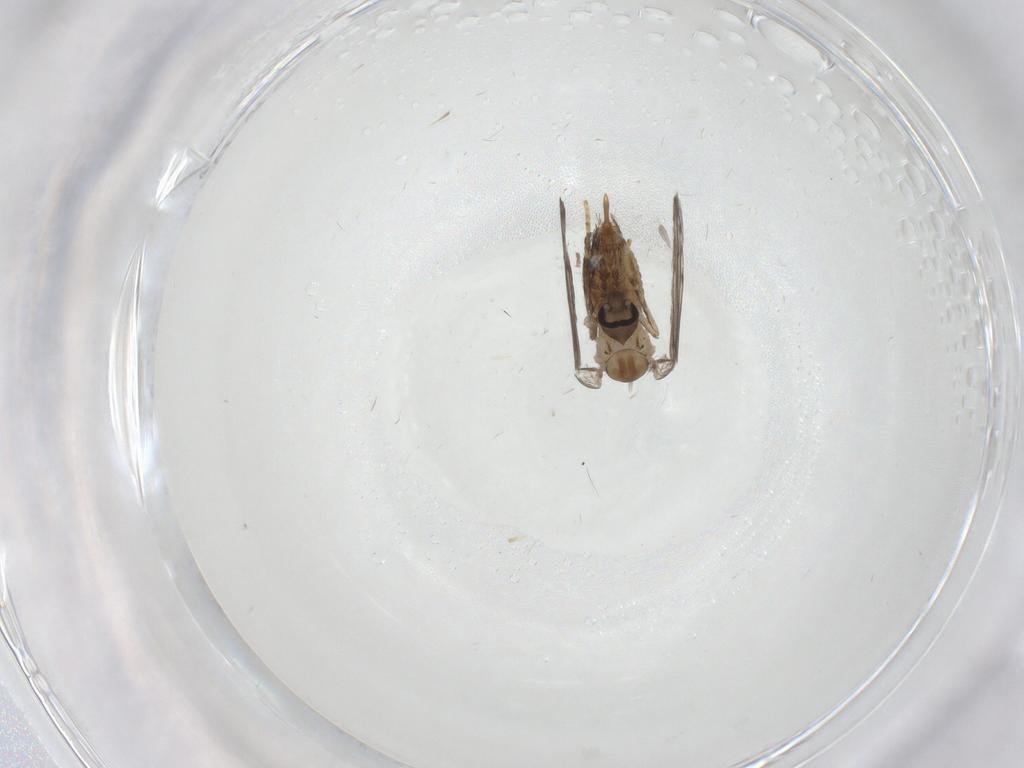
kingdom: Animalia
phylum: Arthropoda
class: Insecta
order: Diptera
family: Psychodidae
